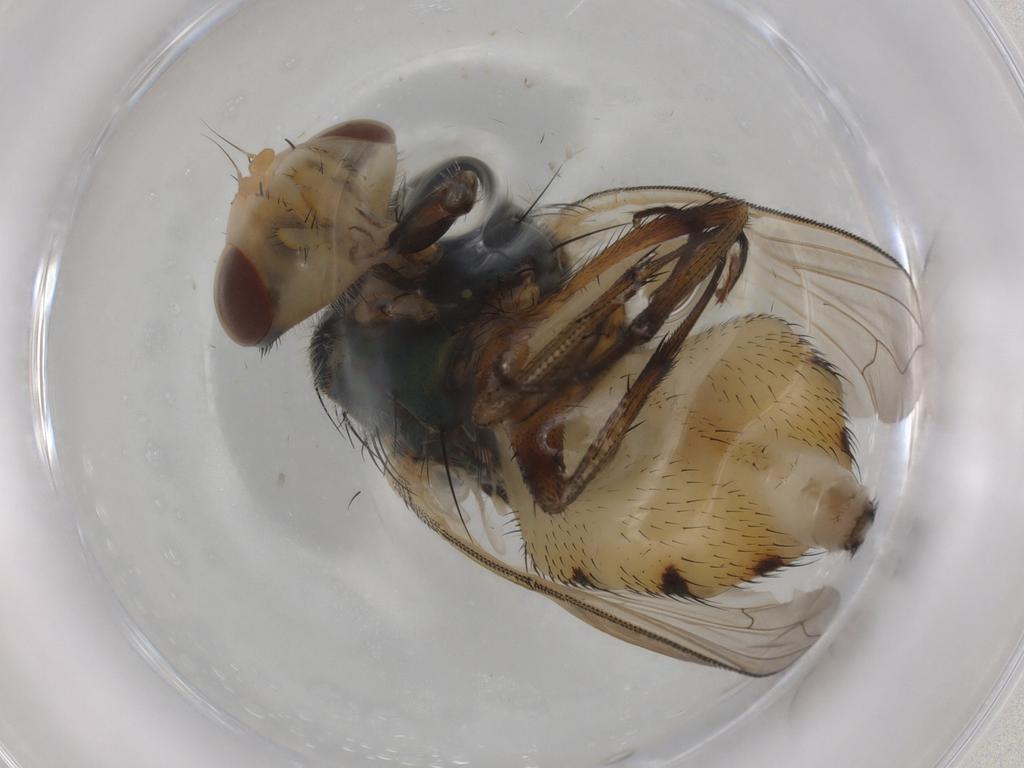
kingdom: Animalia
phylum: Arthropoda
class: Insecta
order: Diptera
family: Calliphoridae
